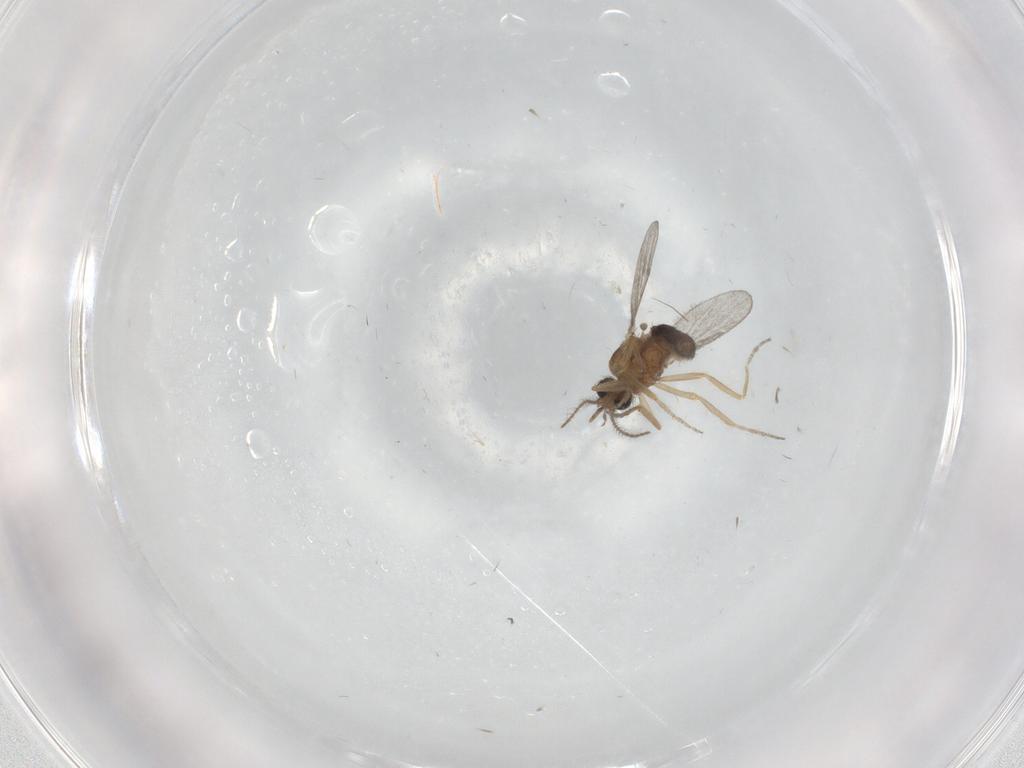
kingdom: Animalia
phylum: Arthropoda
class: Insecta
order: Diptera
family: Ceratopogonidae
